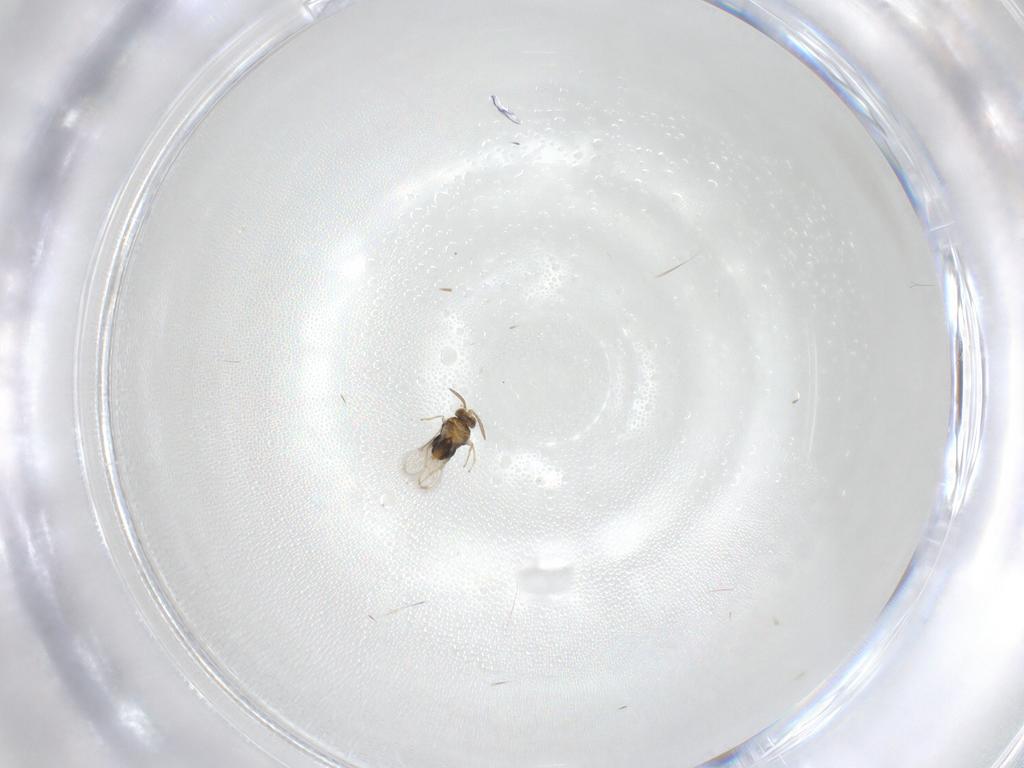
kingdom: Animalia
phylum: Arthropoda
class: Insecta
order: Hymenoptera
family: Aphelinidae
